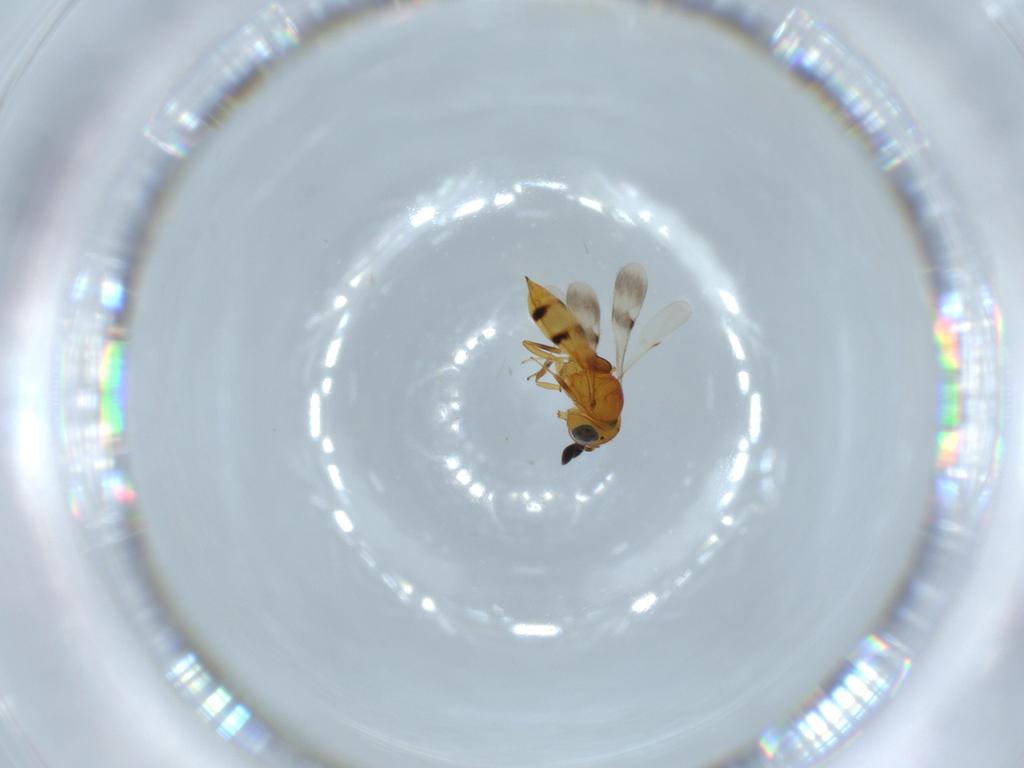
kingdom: Animalia
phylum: Arthropoda
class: Insecta
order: Hymenoptera
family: Scelionidae
